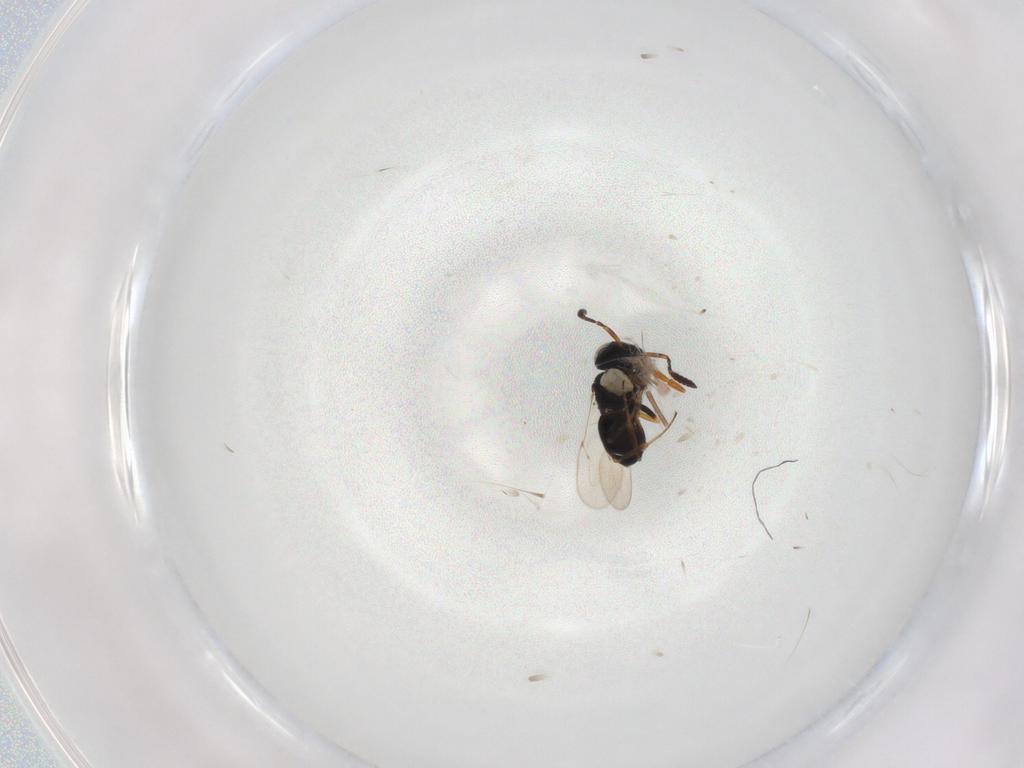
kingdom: Animalia
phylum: Arthropoda
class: Insecta
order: Coleoptera
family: Curculionidae
